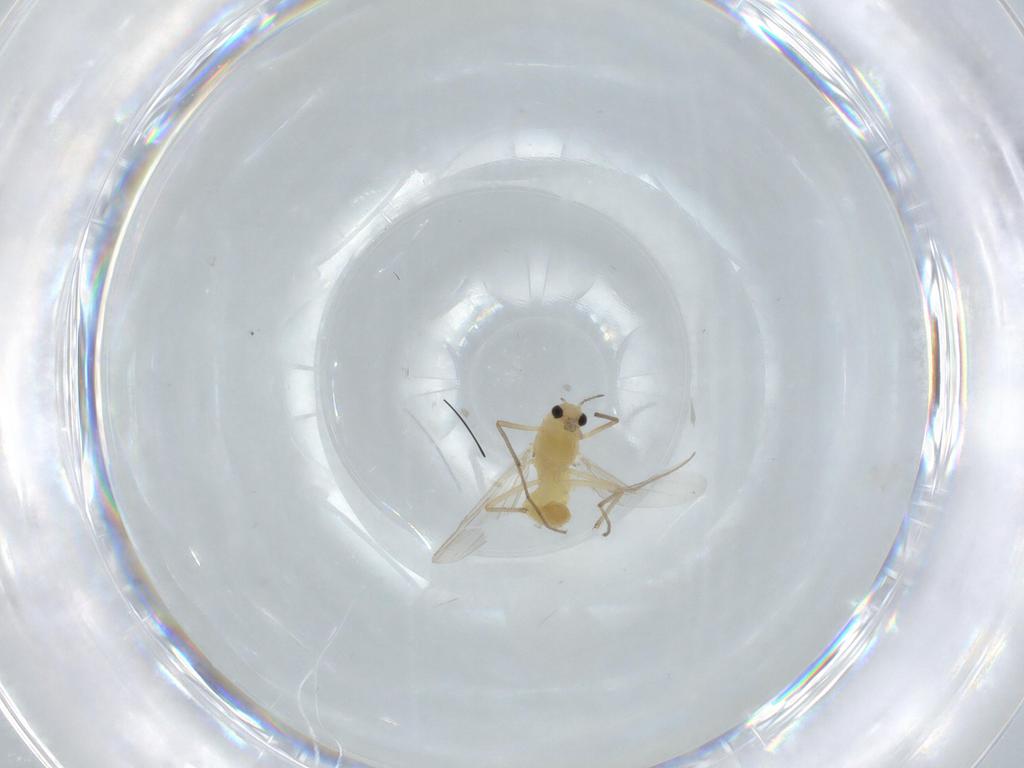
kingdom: Animalia
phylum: Arthropoda
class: Insecta
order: Diptera
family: Chironomidae
